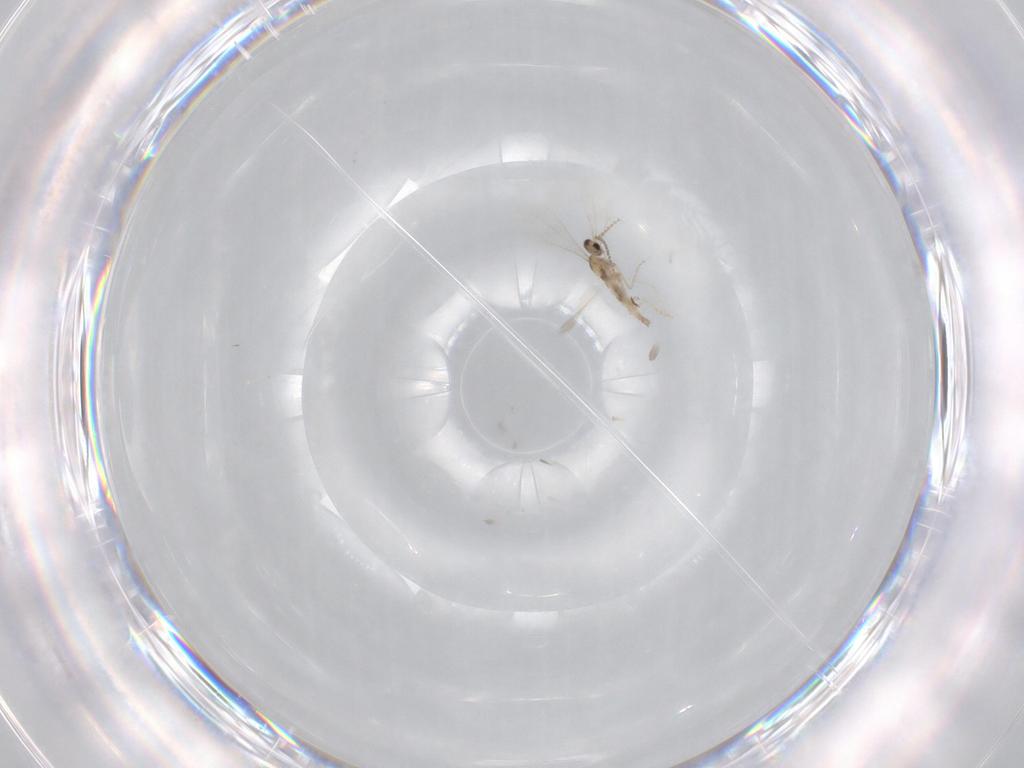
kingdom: Animalia
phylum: Arthropoda
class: Insecta
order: Diptera
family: Cecidomyiidae
